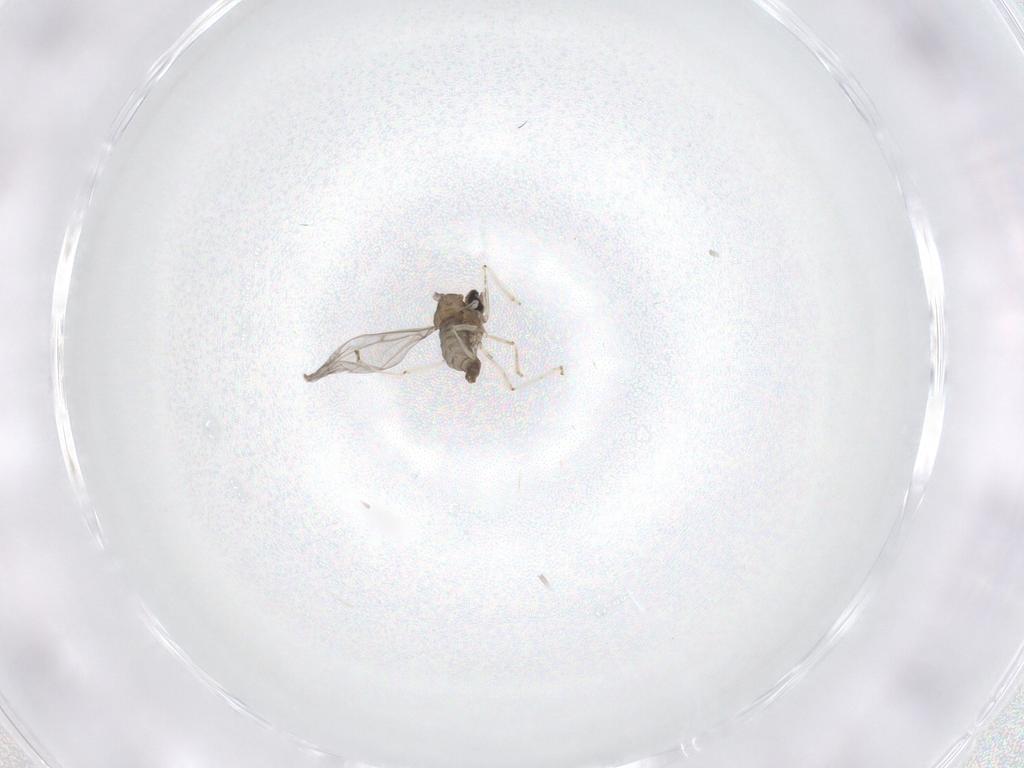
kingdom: Animalia
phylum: Arthropoda
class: Insecta
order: Diptera
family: Cecidomyiidae
